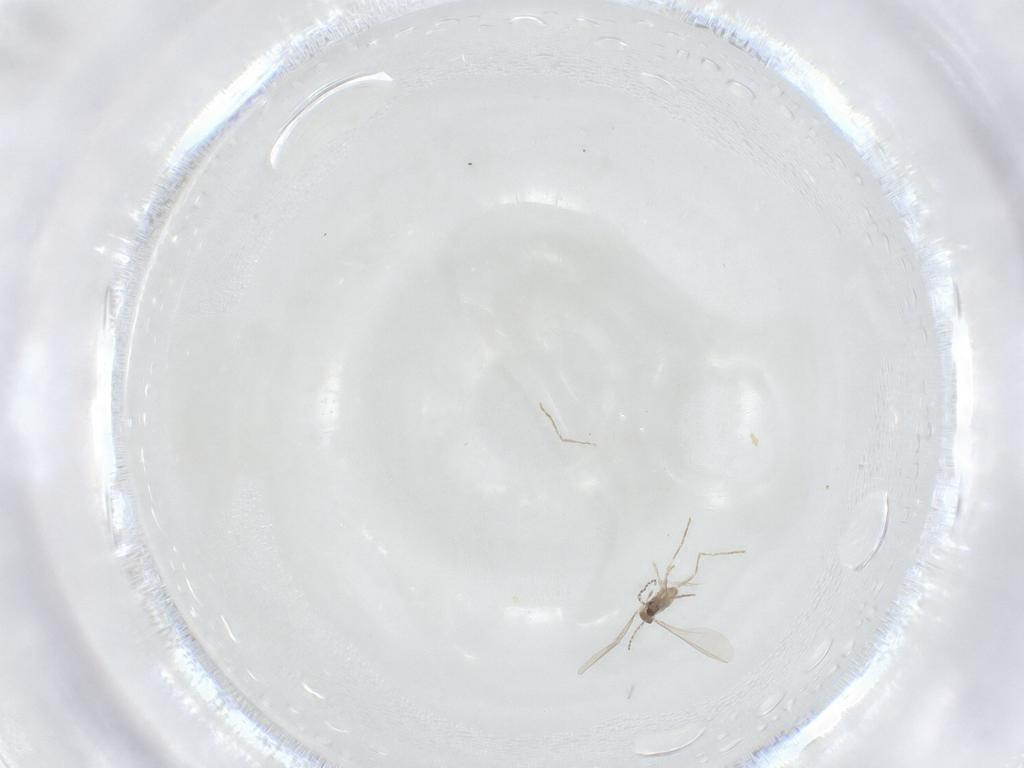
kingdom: Animalia
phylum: Arthropoda
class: Insecta
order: Diptera
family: Cecidomyiidae
